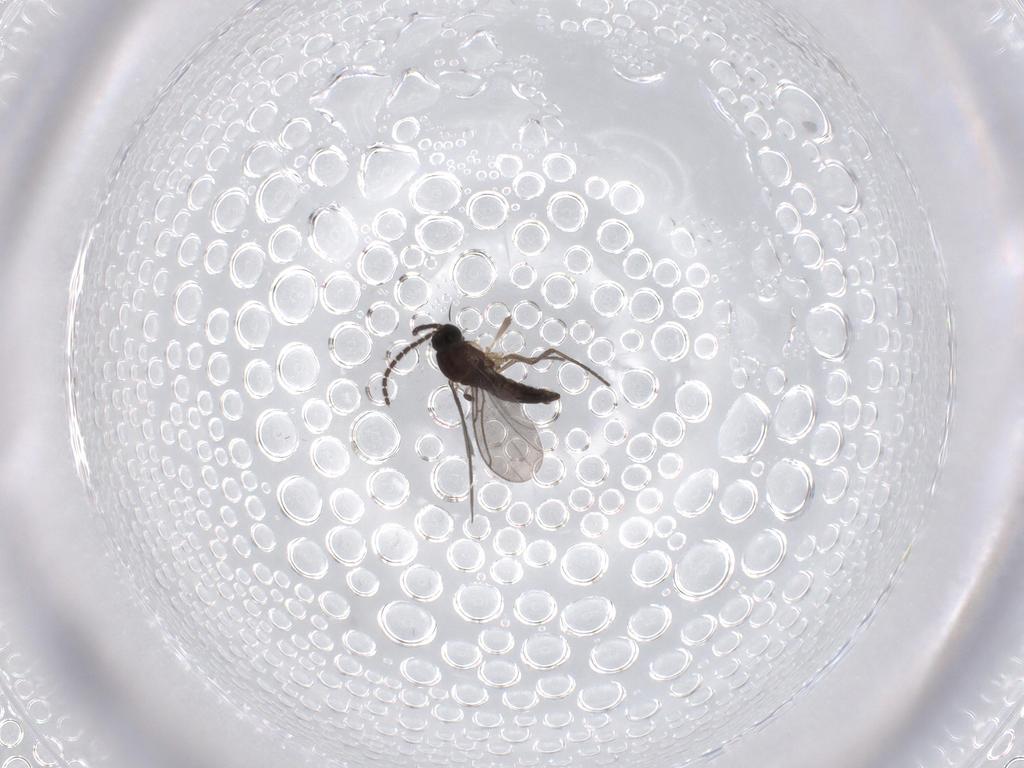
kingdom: Animalia
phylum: Arthropoda
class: Insecta
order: Diptera
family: Sciaridae
